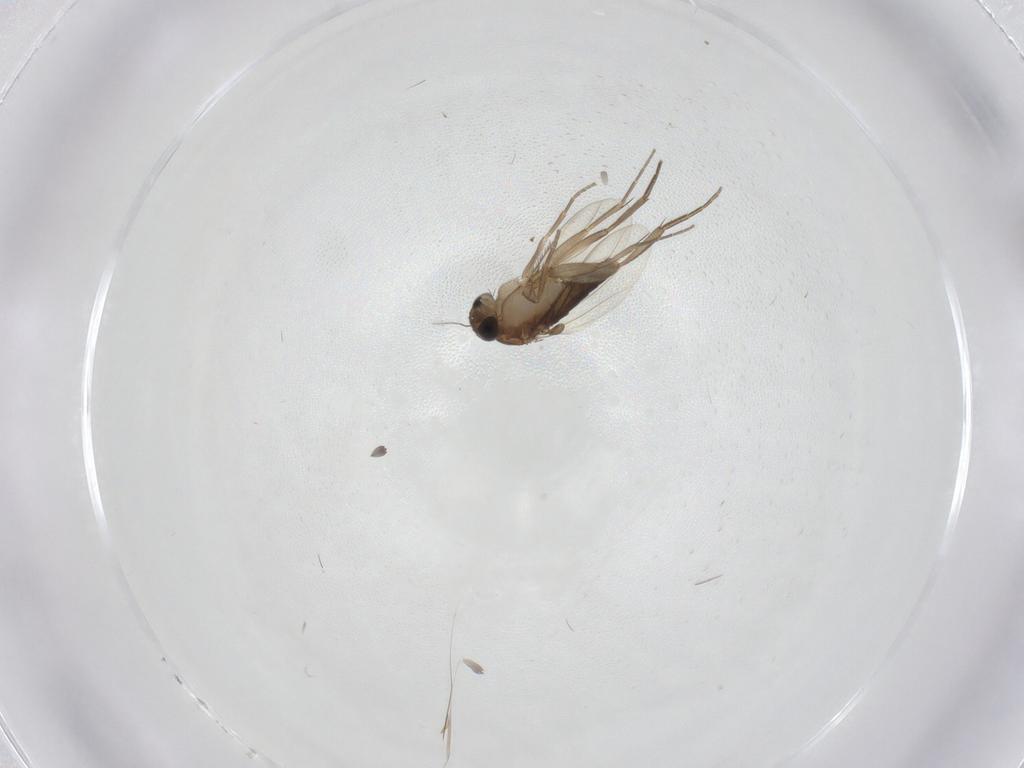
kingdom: Animalia
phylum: Arthropoda
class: Insecta
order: Diptera
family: Phoridae
